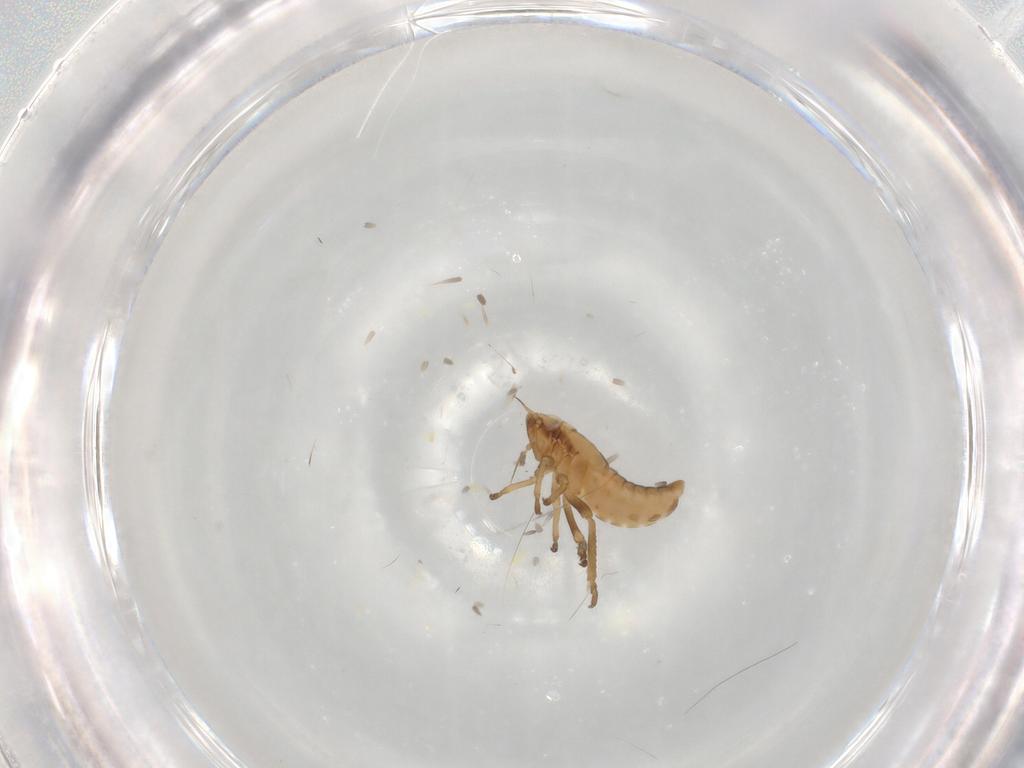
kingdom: Animalia
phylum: Arthropoda
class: Insecta
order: Hemiptera
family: Cicadellidae
